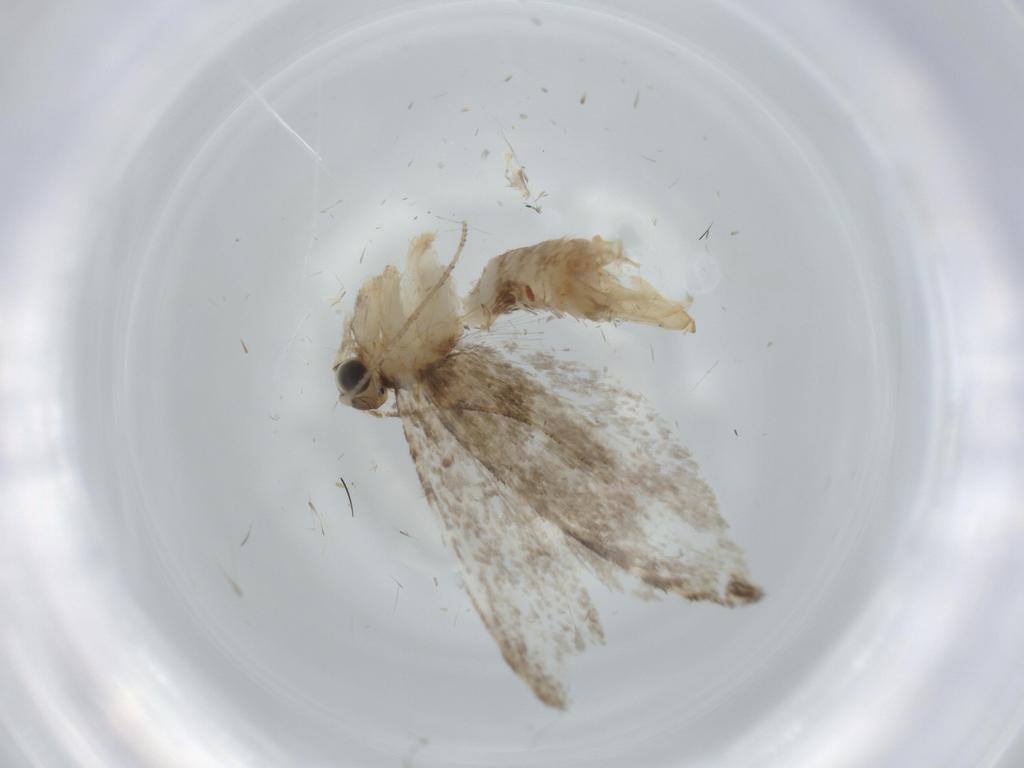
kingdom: Animalia
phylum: Arthropoda
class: Insecta
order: Lepidoptera
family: Tineidae
